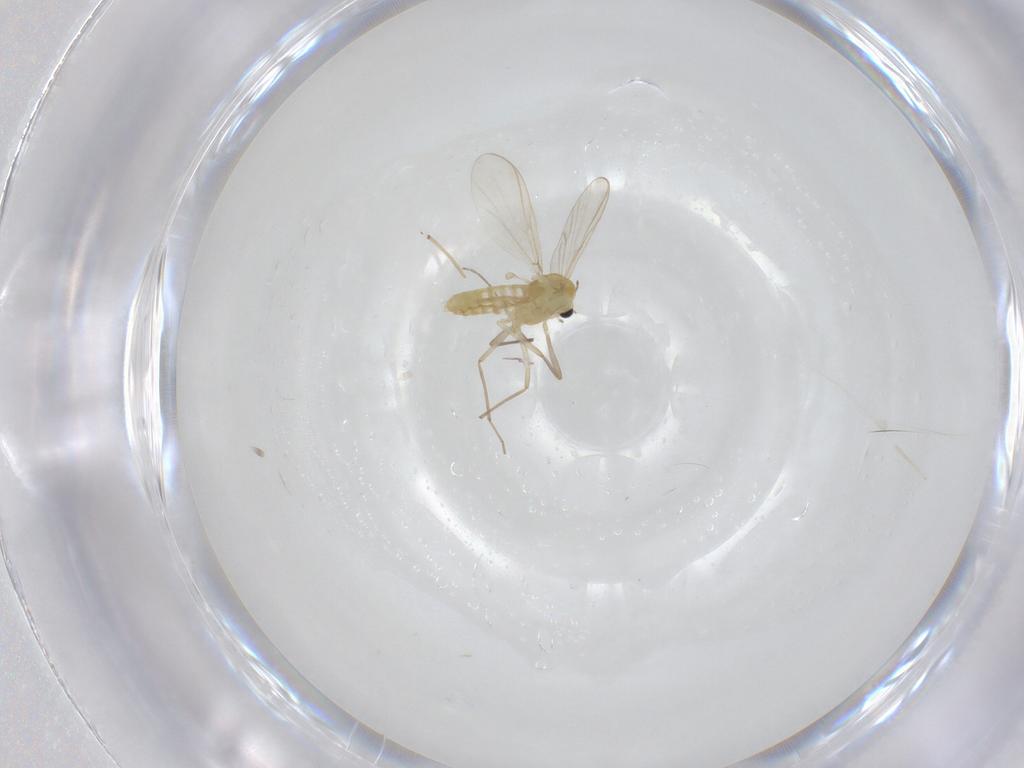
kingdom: Animalia
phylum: Arthropoda
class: Insecta
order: Diptera
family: Chironomidae
